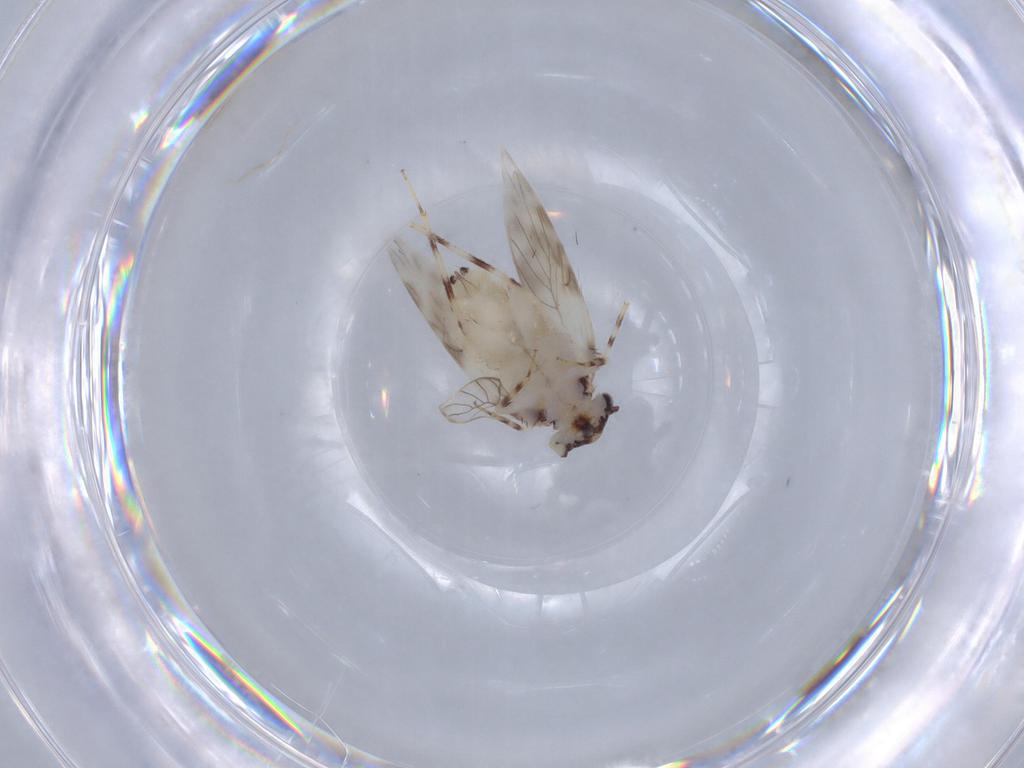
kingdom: Animalia
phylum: Arthropoda
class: Insecta
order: Psocodea
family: Lepidopsocidae
